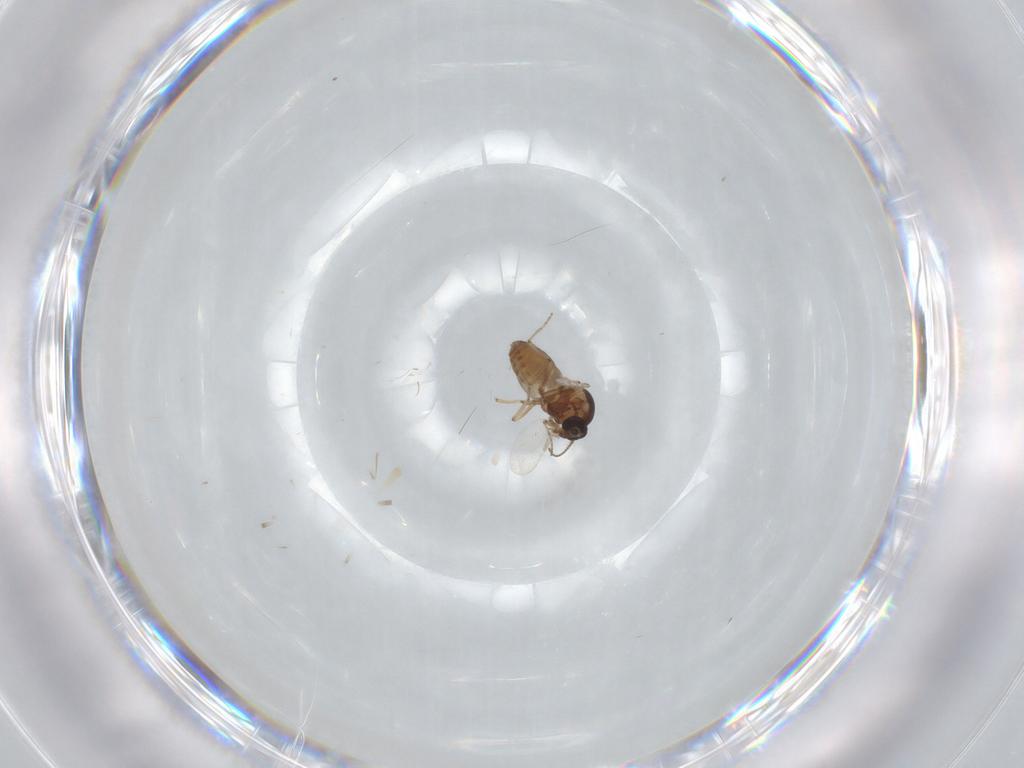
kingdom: Animalia
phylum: Arthropoda
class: Insecta
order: Diptera
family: Ceratopogonidae
